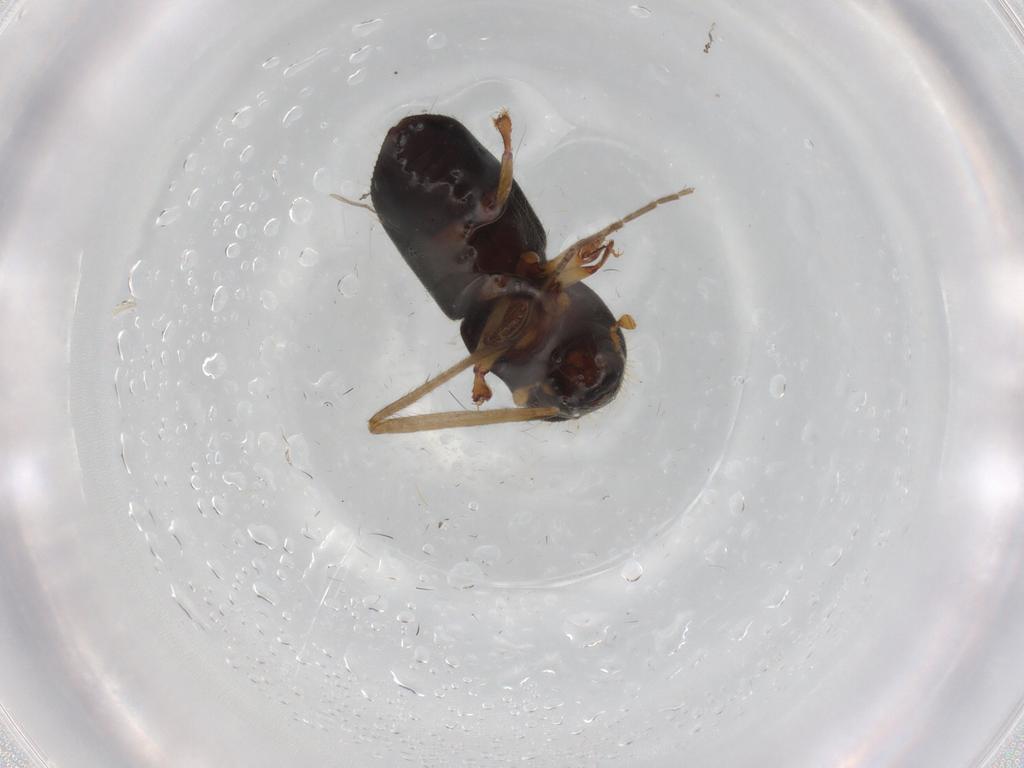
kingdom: Animalia
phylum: Arthropoda
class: Insecta
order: Coleoptera
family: Curculionidae
